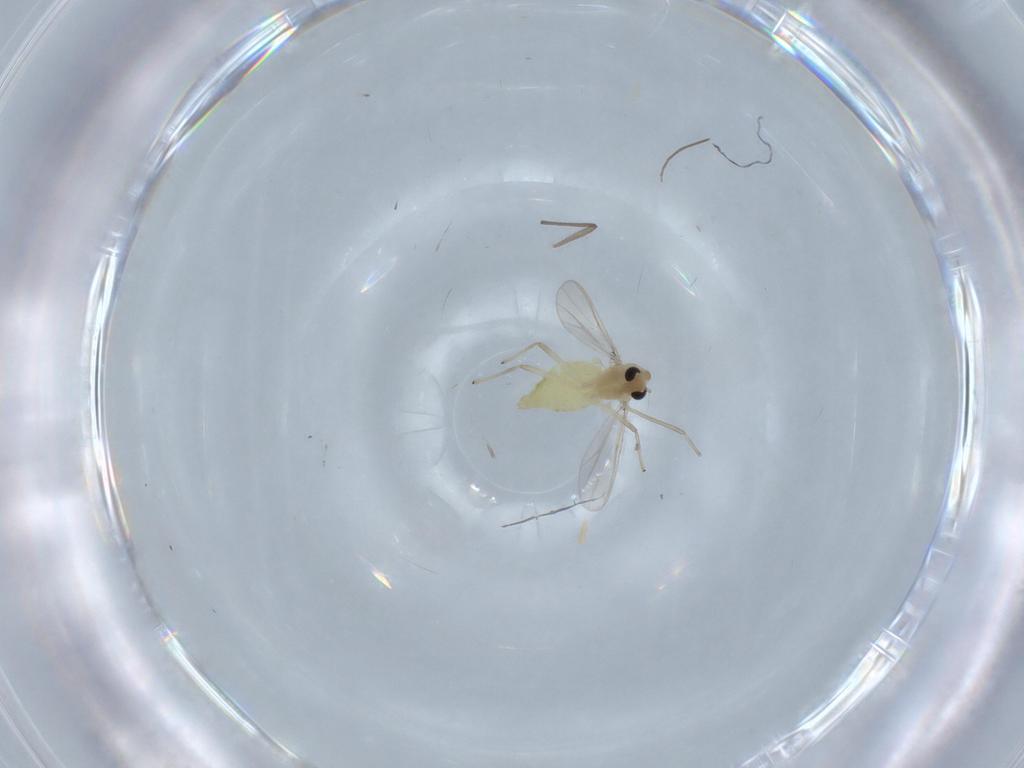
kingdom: Animalia
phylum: Arthropoda
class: Insecta
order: Diptera
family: Chironomidae
